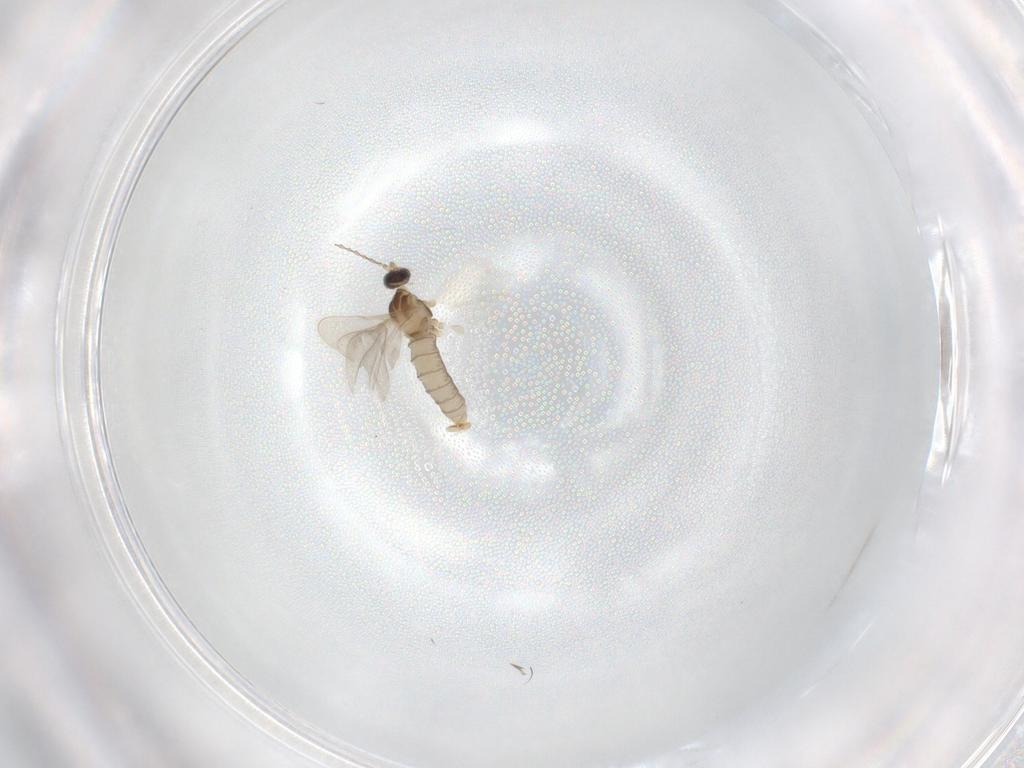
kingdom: Animalia
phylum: Arthropoda
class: Insecta
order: Diptera
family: Cecidomyiidae
